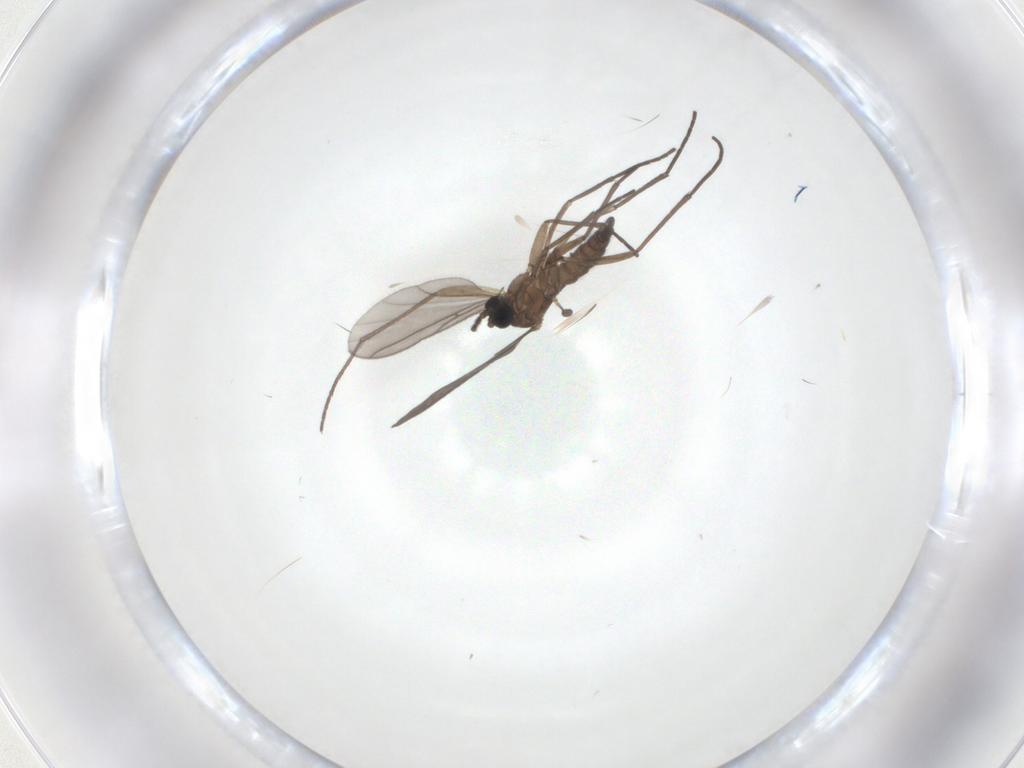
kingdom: Animalia
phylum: Arthropoda
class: Insecta
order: Diptera
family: Sciaridae
